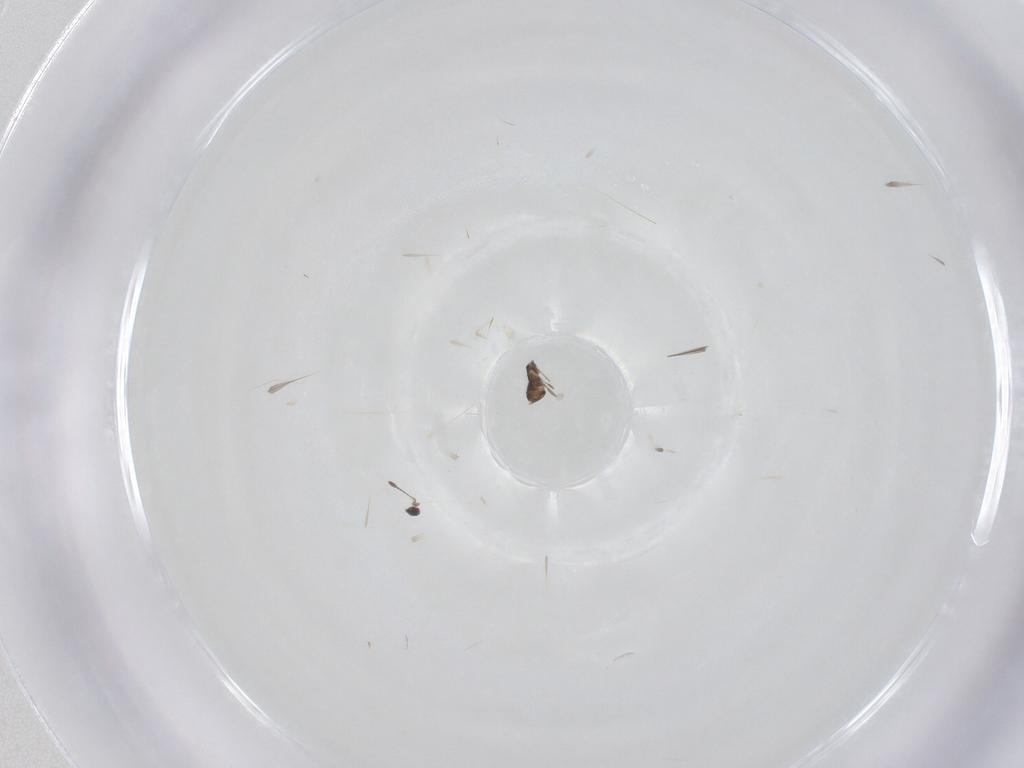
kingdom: Animalia
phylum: Arthropoda
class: Insecta
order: Hymenoptera
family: Mymaridae
